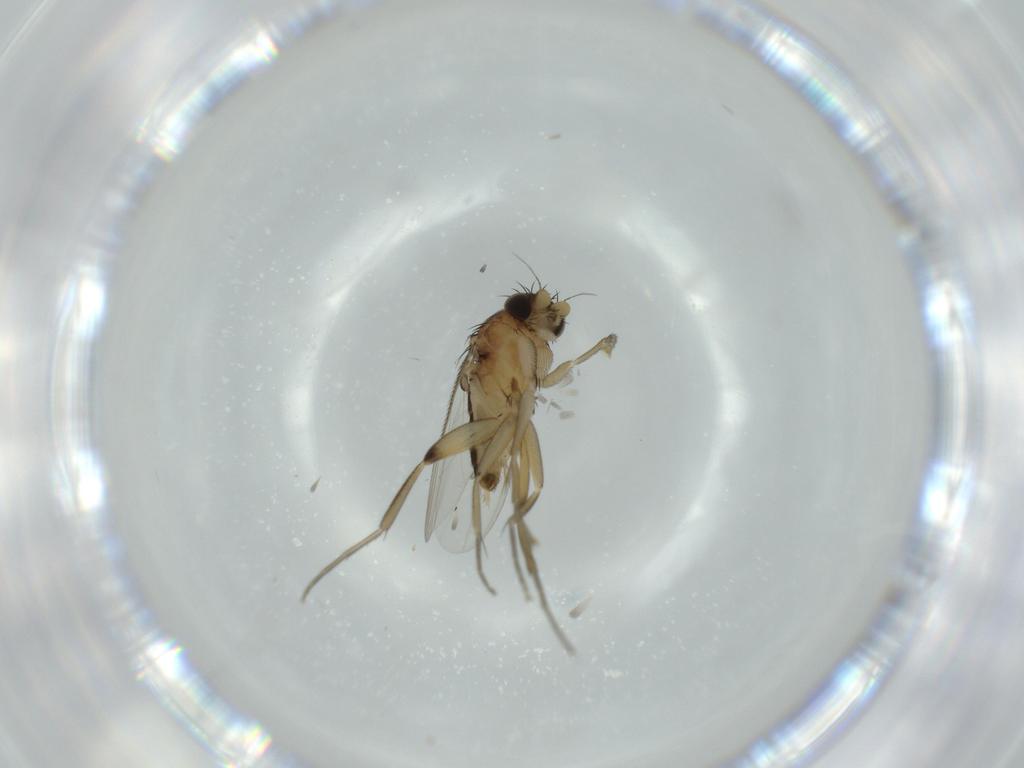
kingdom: Animalia
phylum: Arthropoda
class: Insecta
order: Diptera
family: Phoridae
